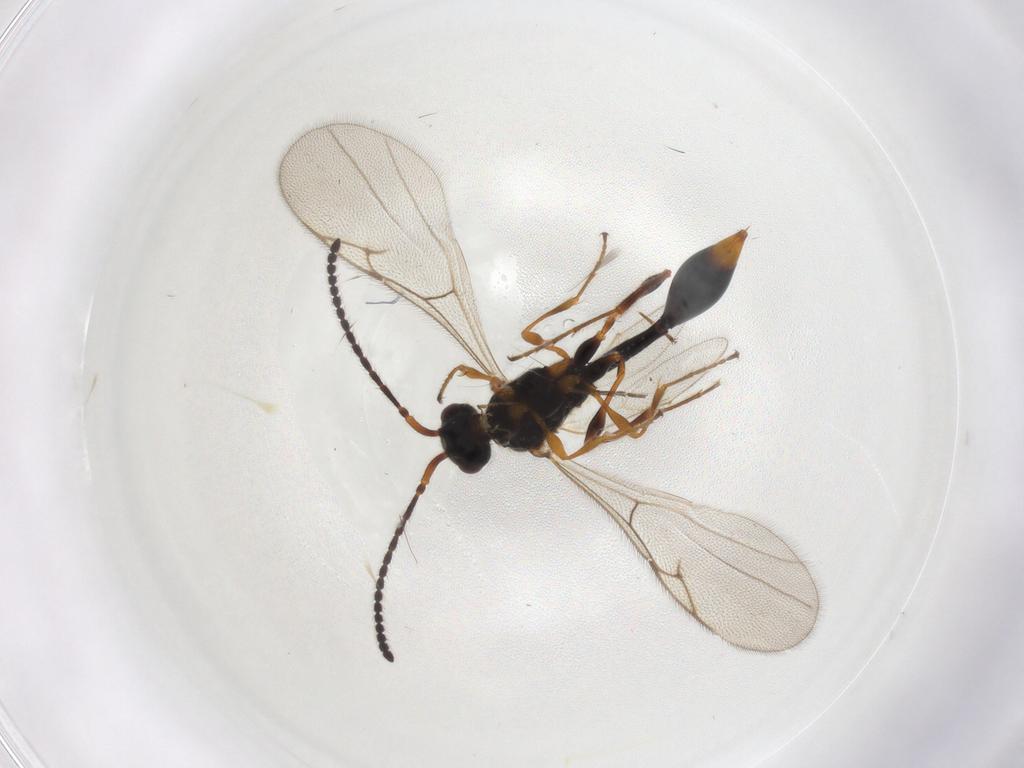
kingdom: Animalia
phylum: Arthropoda
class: Insecta
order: Hymenoptera
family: Diapriidae
